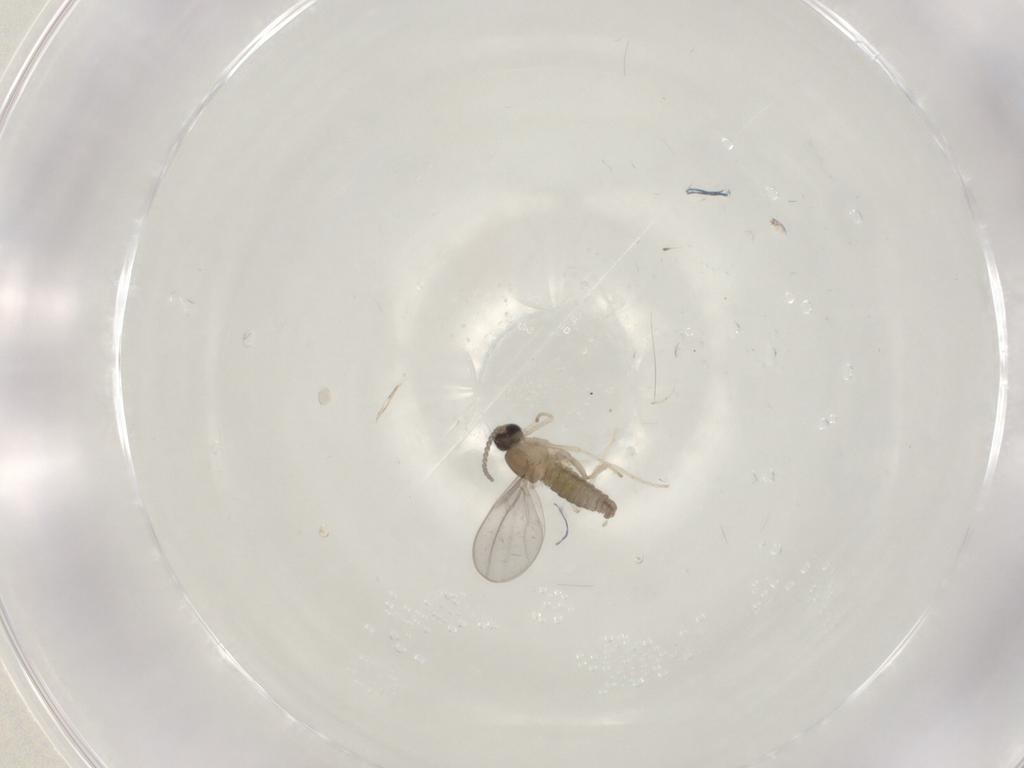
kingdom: Animalia
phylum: Arthropoda
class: Insecta
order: Diptera
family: Cecidomyiidae
